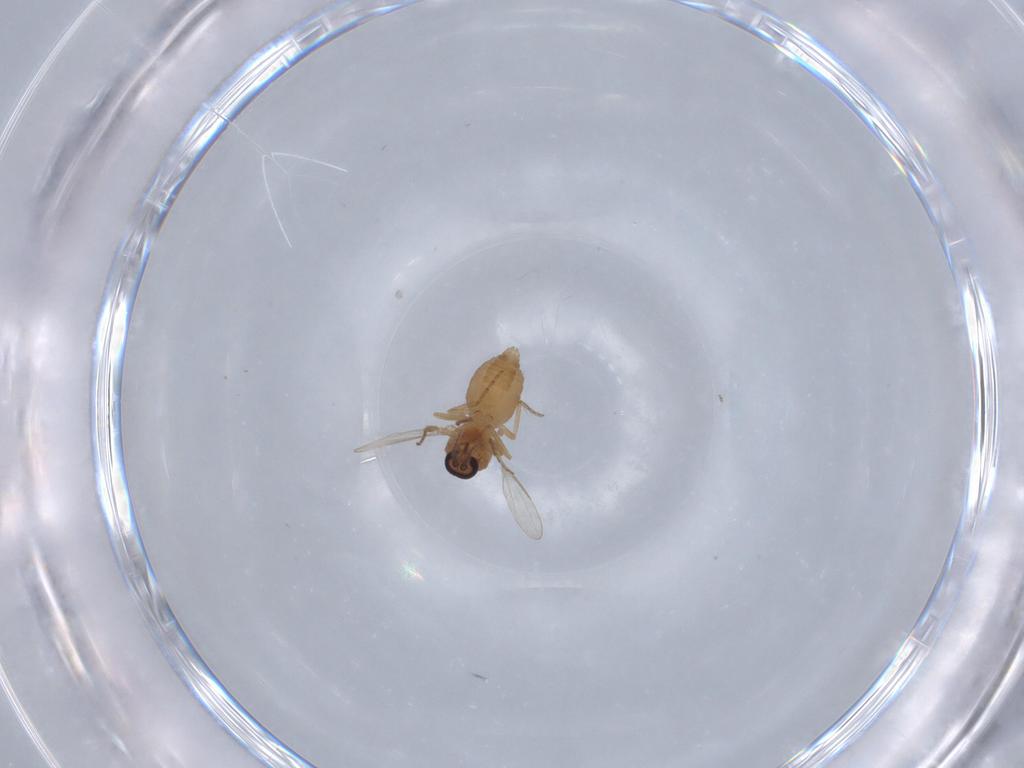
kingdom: Animalia
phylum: Arthropoda
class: Insecta
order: Diptera
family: Ceratopogonidae
